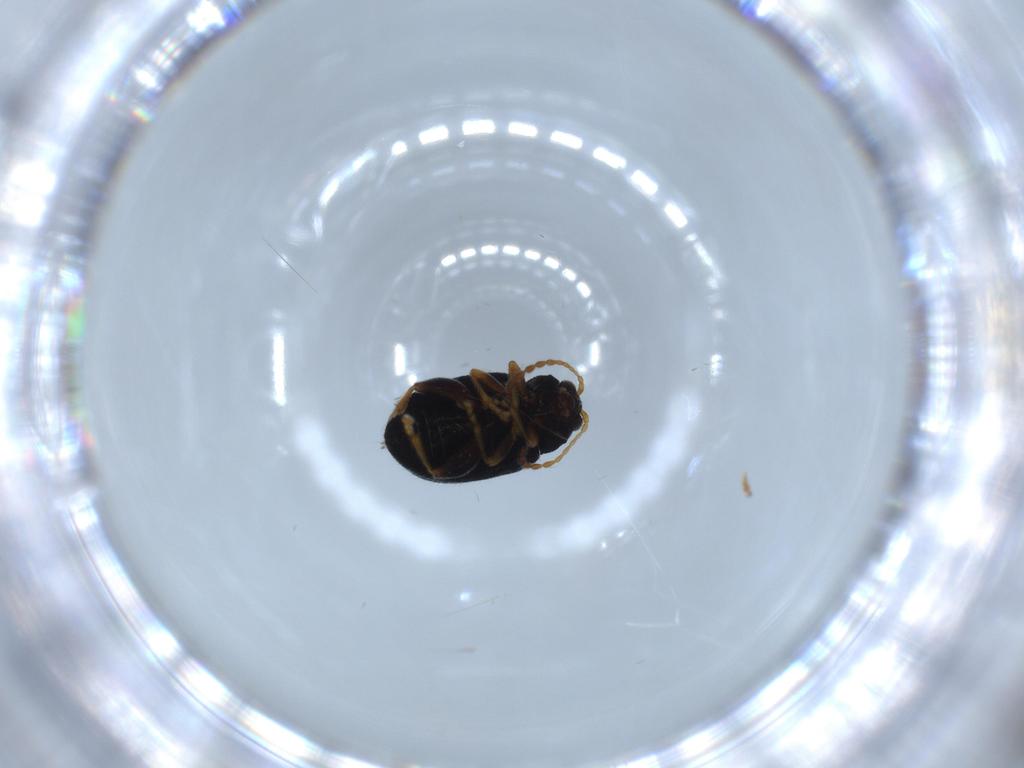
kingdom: Animalia
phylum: Arthropoda
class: Insecta
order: Coleoptera
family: Chrysomelidae
